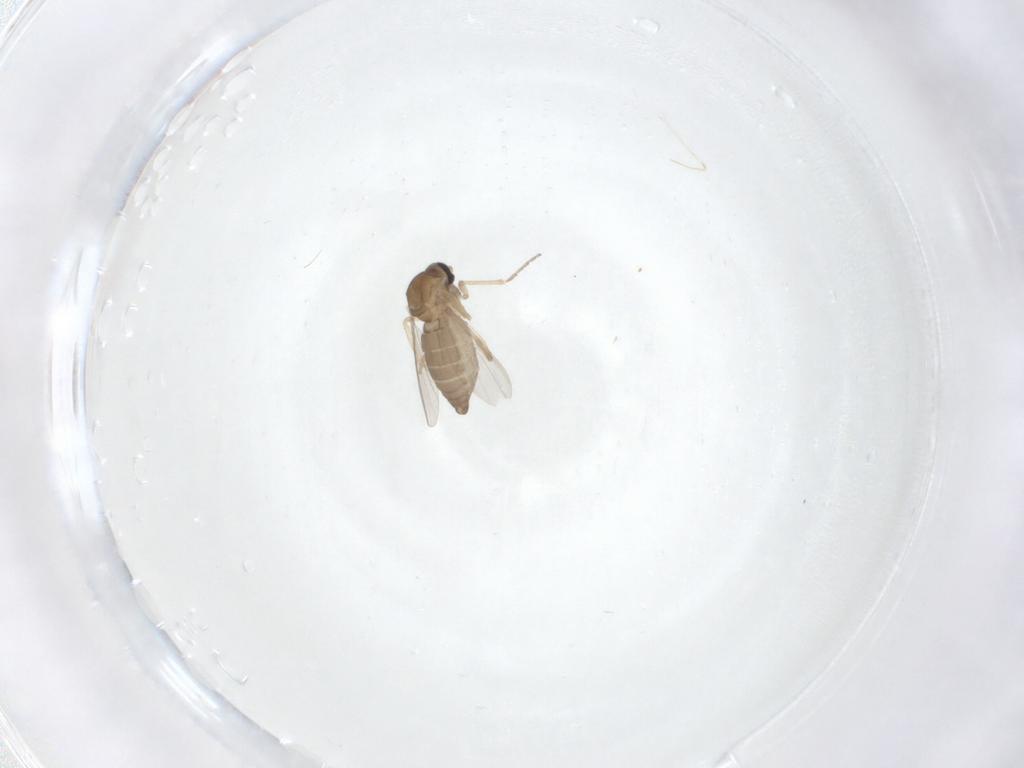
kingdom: Animalia
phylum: Arthropoda
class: Insecta
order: Diptera
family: Ceratopogonidae
